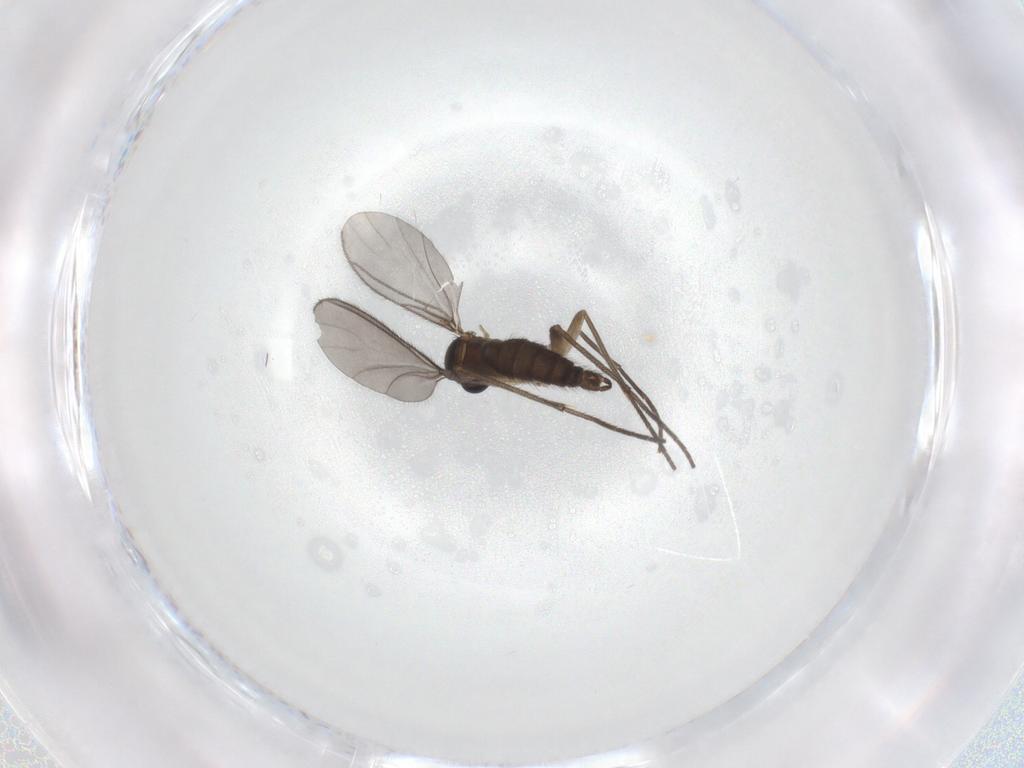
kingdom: Animalia
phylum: Arthropoda
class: Insecta
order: Diptera
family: Sciaridae
